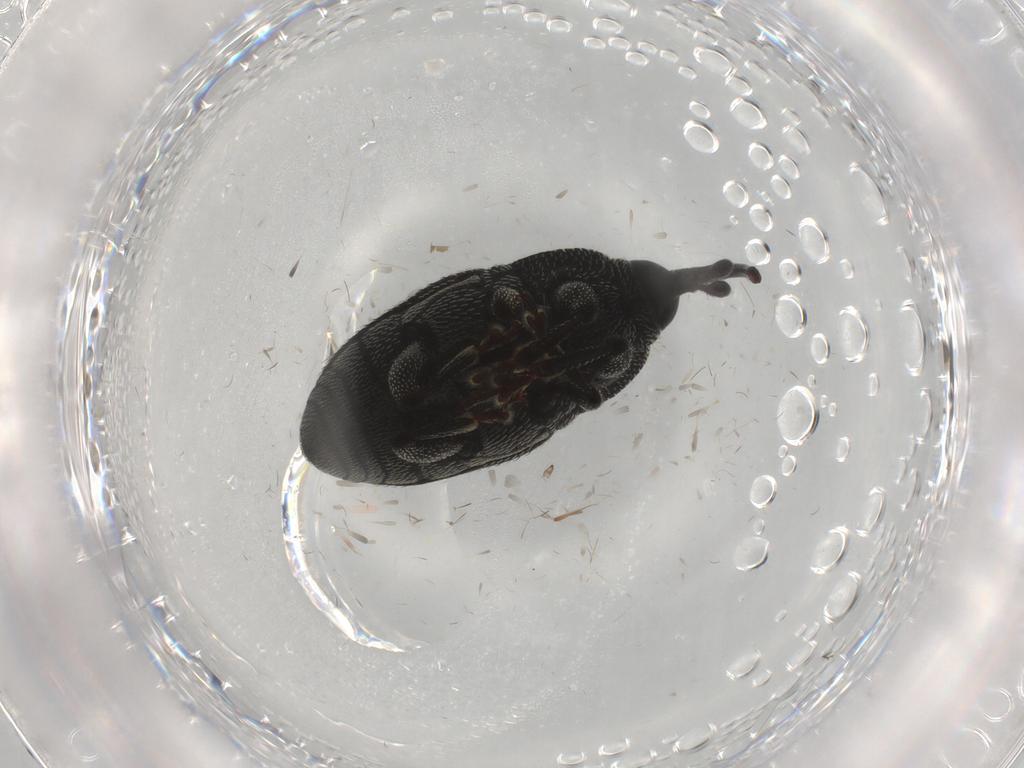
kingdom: Animalia
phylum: Arthropoda
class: Insecta
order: Coleoptera
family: Curculionidae
